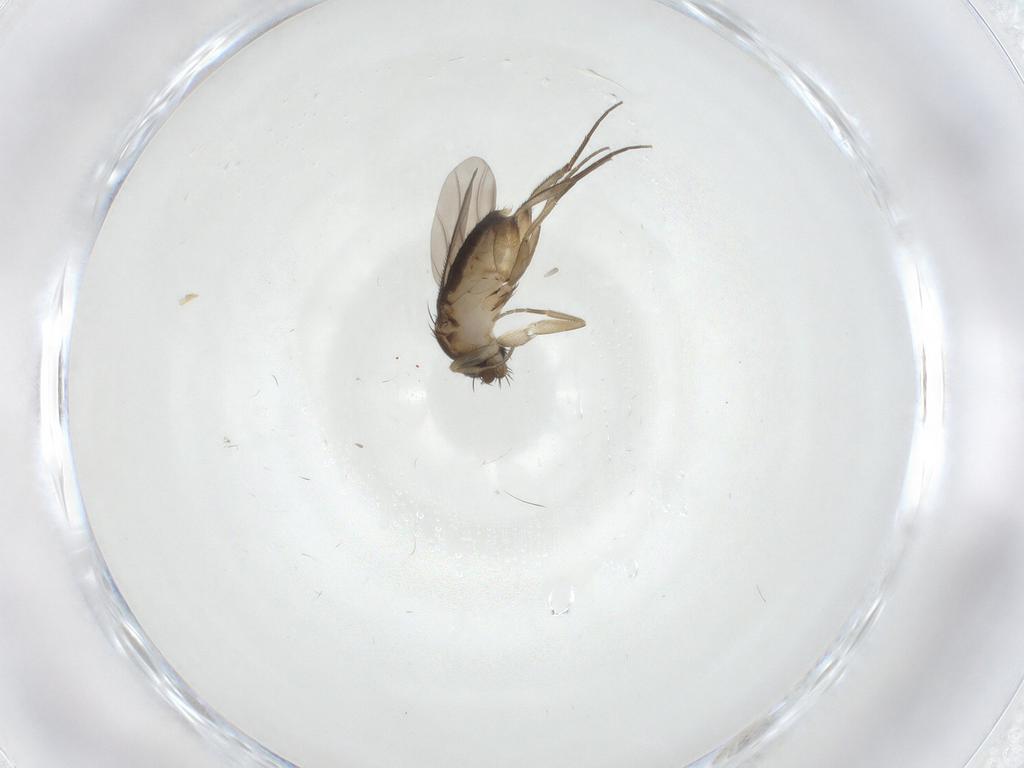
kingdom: Animalia
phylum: Arthropoda
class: Insecta
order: Diptera
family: Phoridae
